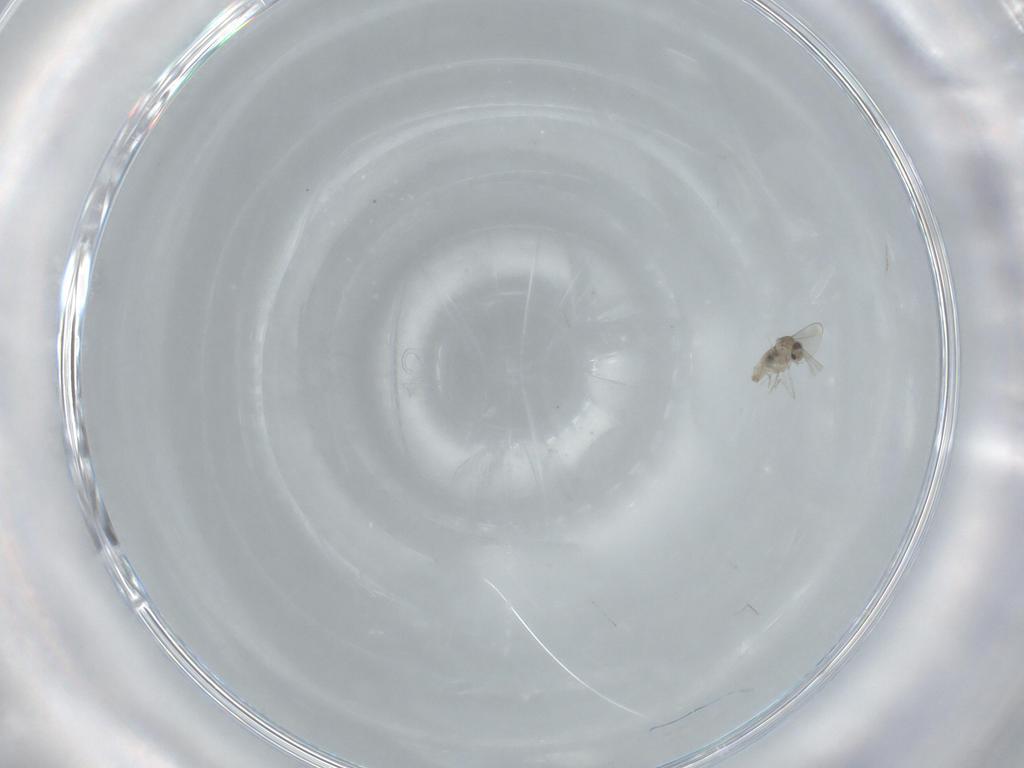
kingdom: Animalia
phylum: Arthropoda
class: Insecta
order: Diptera
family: Cecidomyiidae
